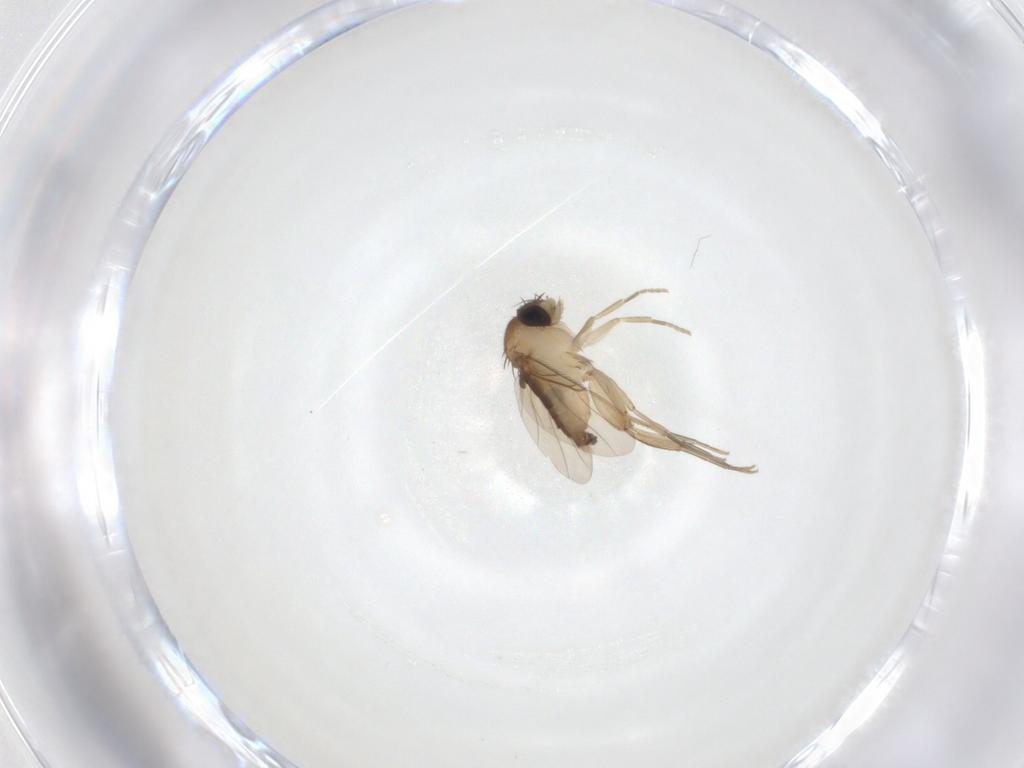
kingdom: Animalia
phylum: Arthropoda
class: Insecta
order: Diptera
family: Phoridae
